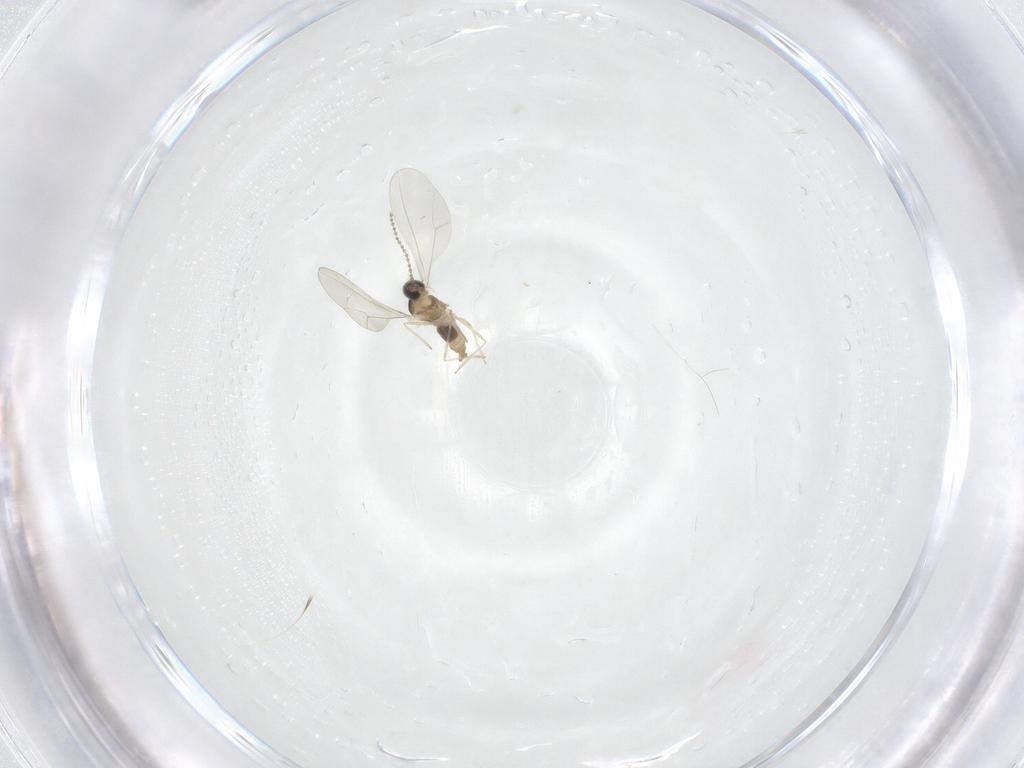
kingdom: Animalia
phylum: Arthropoda
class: Insecta
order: Diptera
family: Cecidomyiidae
